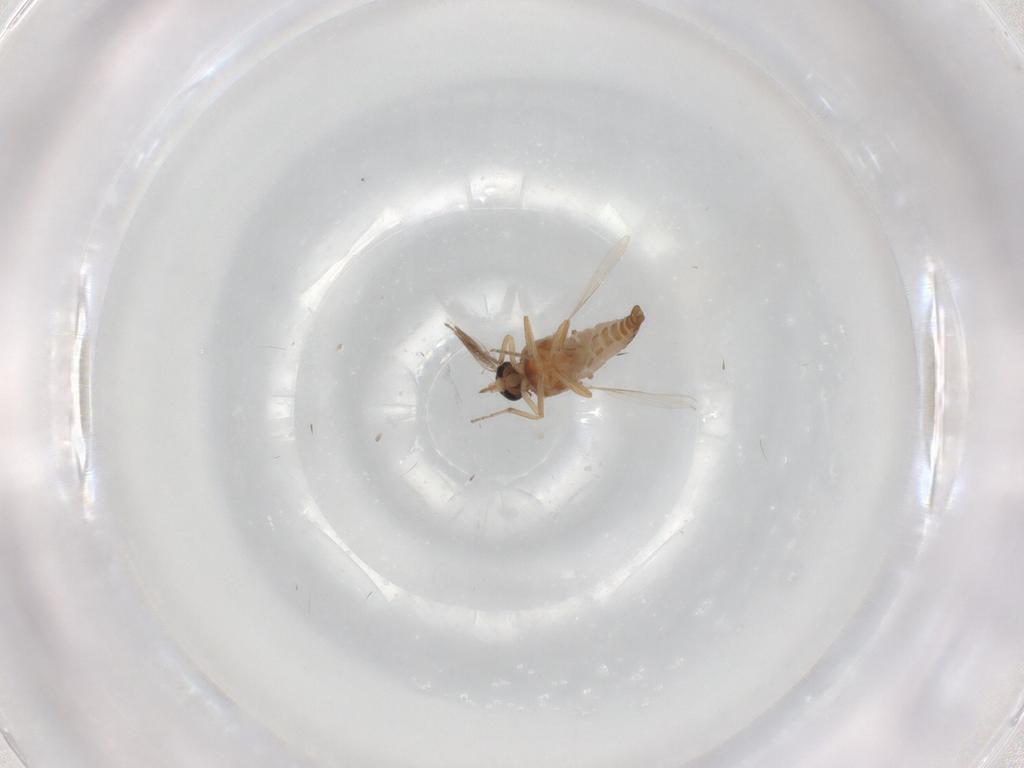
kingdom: Animalia
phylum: Arthropoda
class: Insecta
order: Diptera
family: Ceratopogonidae
